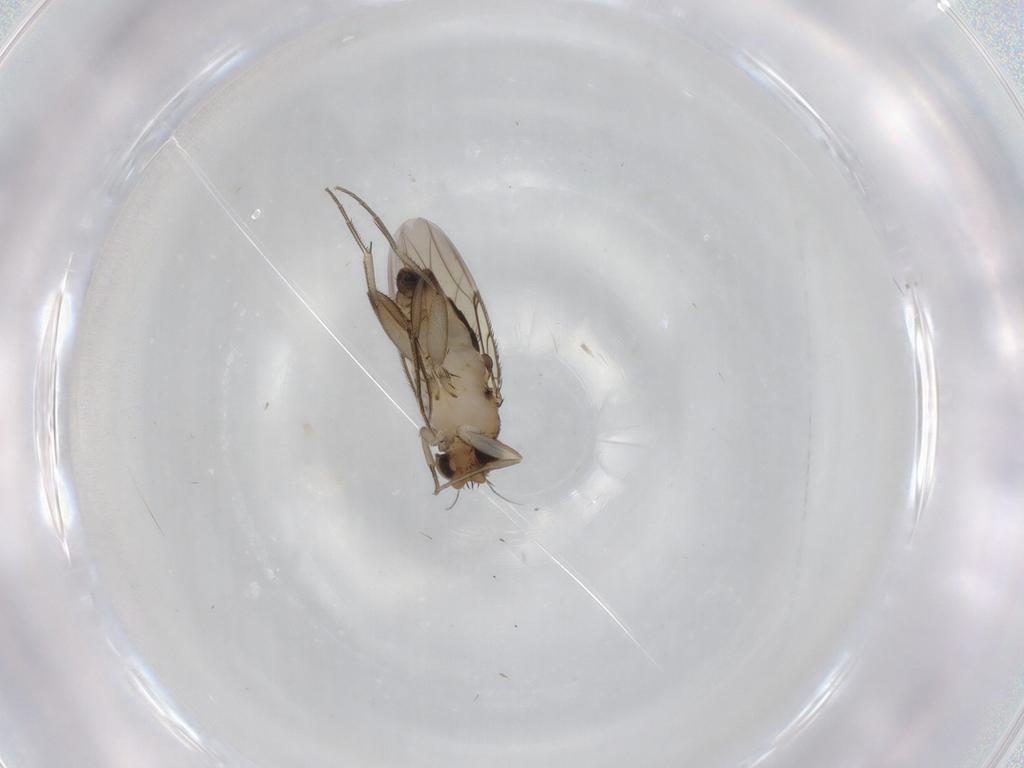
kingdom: Animalia
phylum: Arthropoda
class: Insecta
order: Diptera
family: Phoridae
